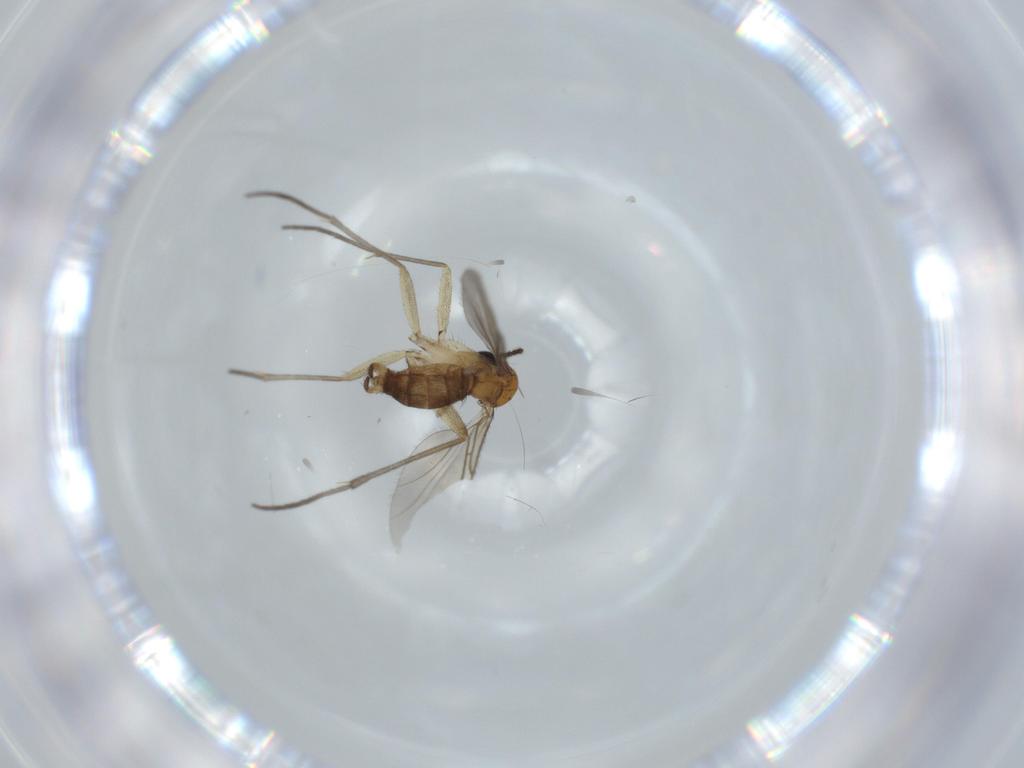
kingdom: Animalia
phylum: Arthropoda
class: Insecta
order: Diptera
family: Sciaridae
